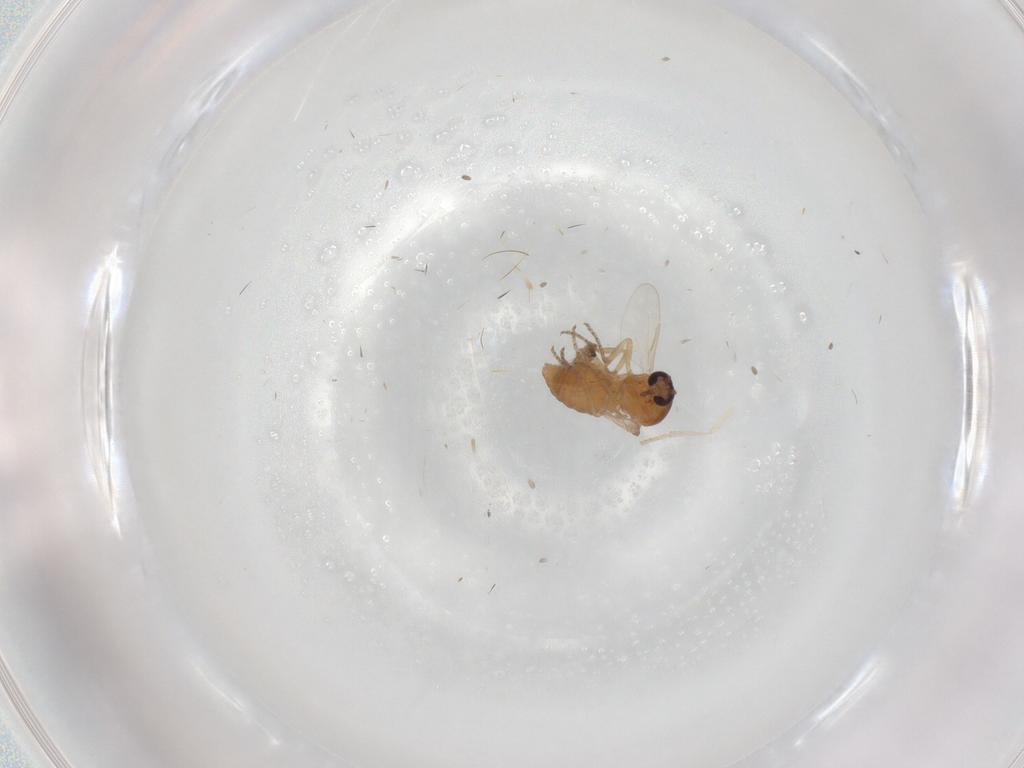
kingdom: Animalia
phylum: Arthropoda
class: Insecta
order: Diptera
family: Ceratopogonidae
